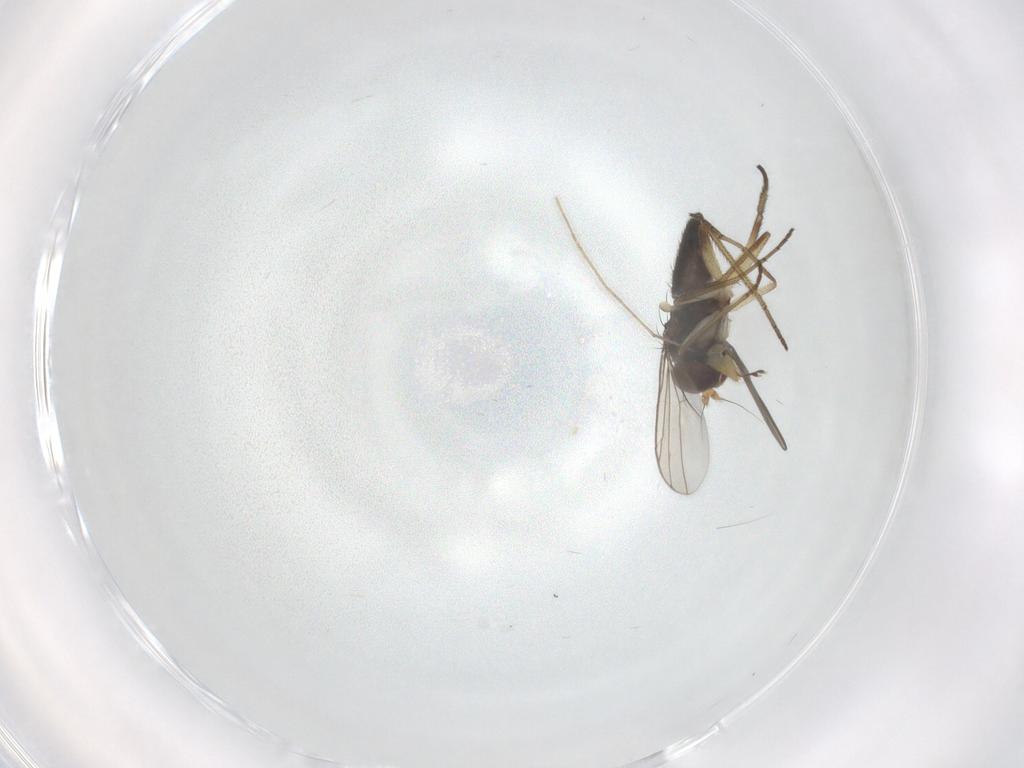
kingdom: Animalia
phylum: Arthropoda
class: Insecta
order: Diptera
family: Dolichopodidae
